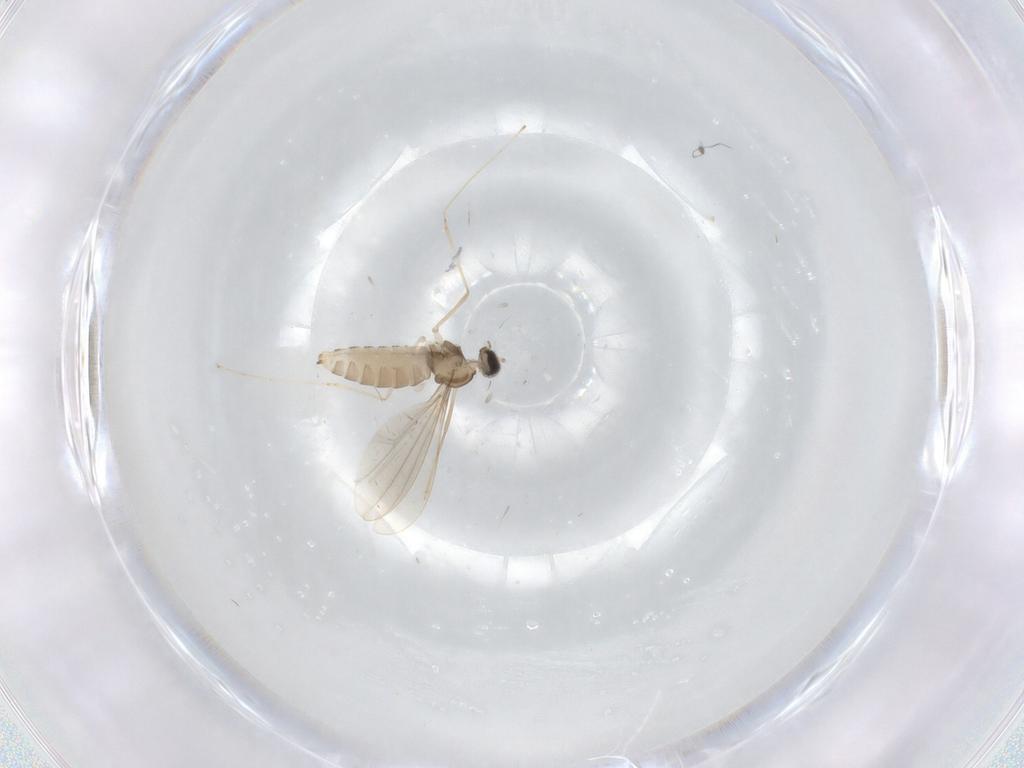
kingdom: Animalia
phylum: Arthropoda
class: Insecta
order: Diptera
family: Sciaridae
